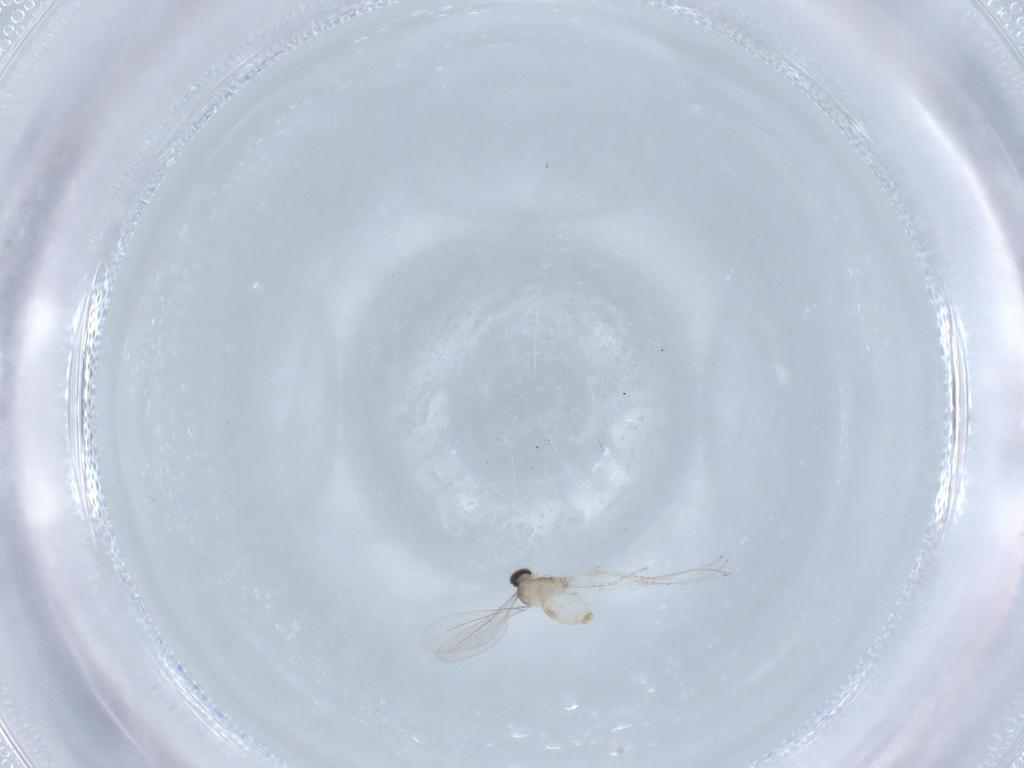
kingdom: Animalia
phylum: Arthropoda
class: Insecta
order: Diptera
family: Cecidomyiidae
